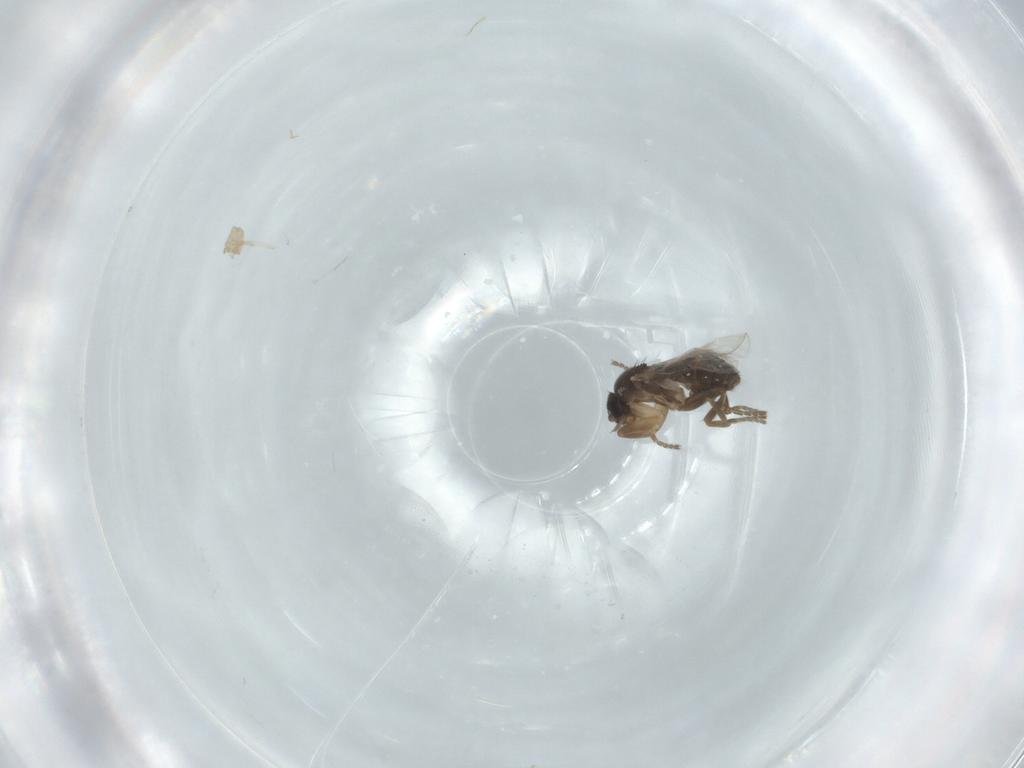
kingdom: Animalia
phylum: Arthropoda
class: Insecta
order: Diptera
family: Phoridae
